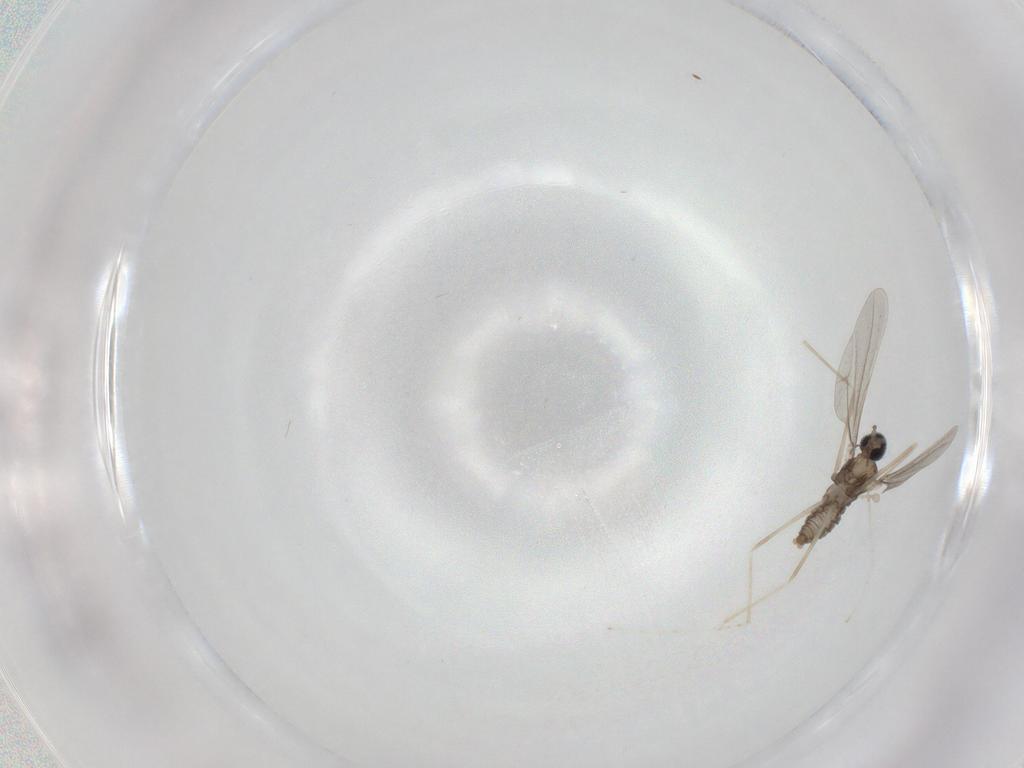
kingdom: Animalia
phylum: Arthropoda
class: Insecta
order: Diptera
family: Cecidomyiidae
